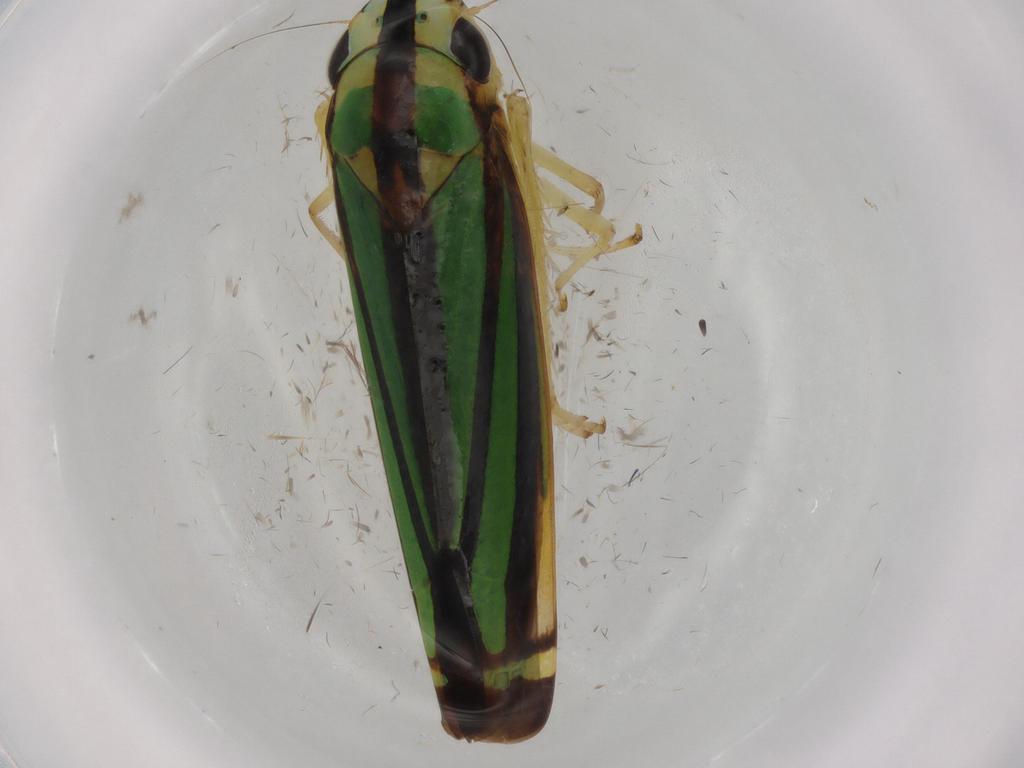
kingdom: Animalia
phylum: Arthropoda
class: Insecta
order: Hemiptera
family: Cicadellidae
